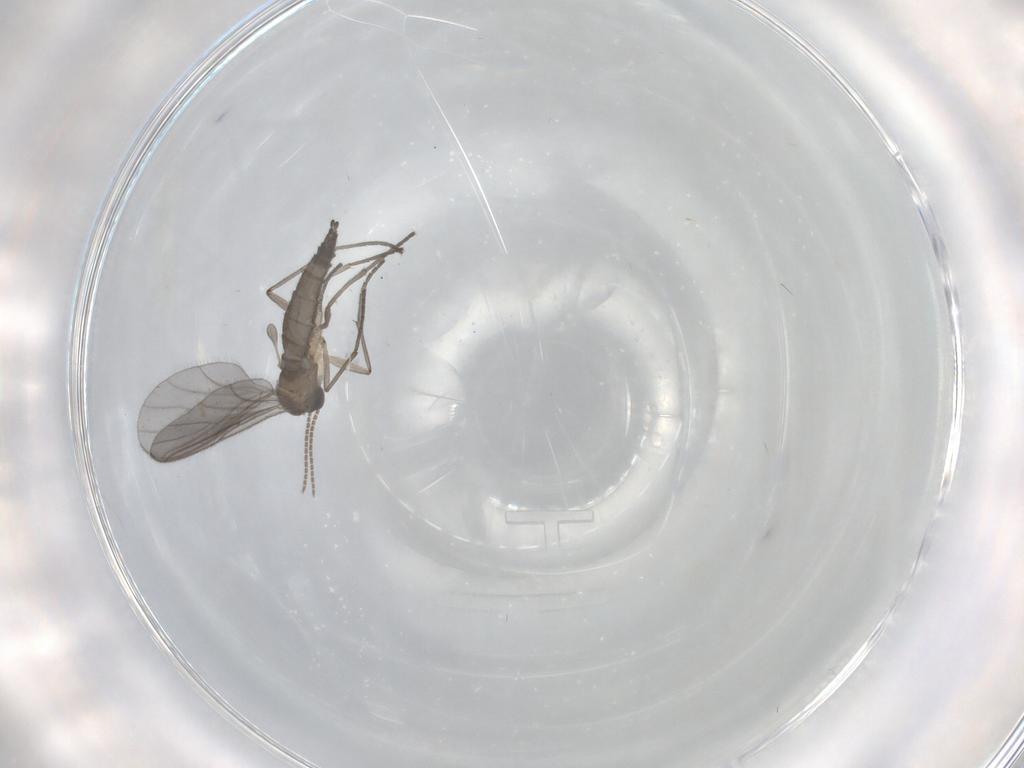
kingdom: Animalia
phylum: Arthropoda
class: Insecta
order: Diptera
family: Sciaridae
